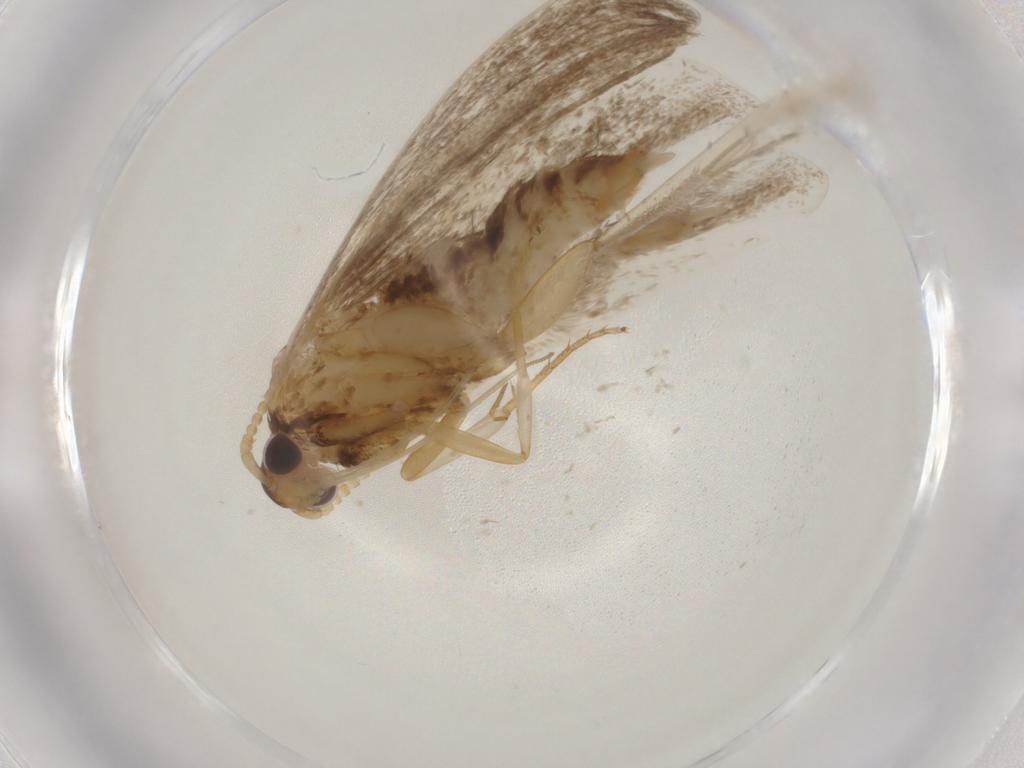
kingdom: Animalia
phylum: Arthropoda
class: Insecta
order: Lepidoptera
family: Lecithoceridae
